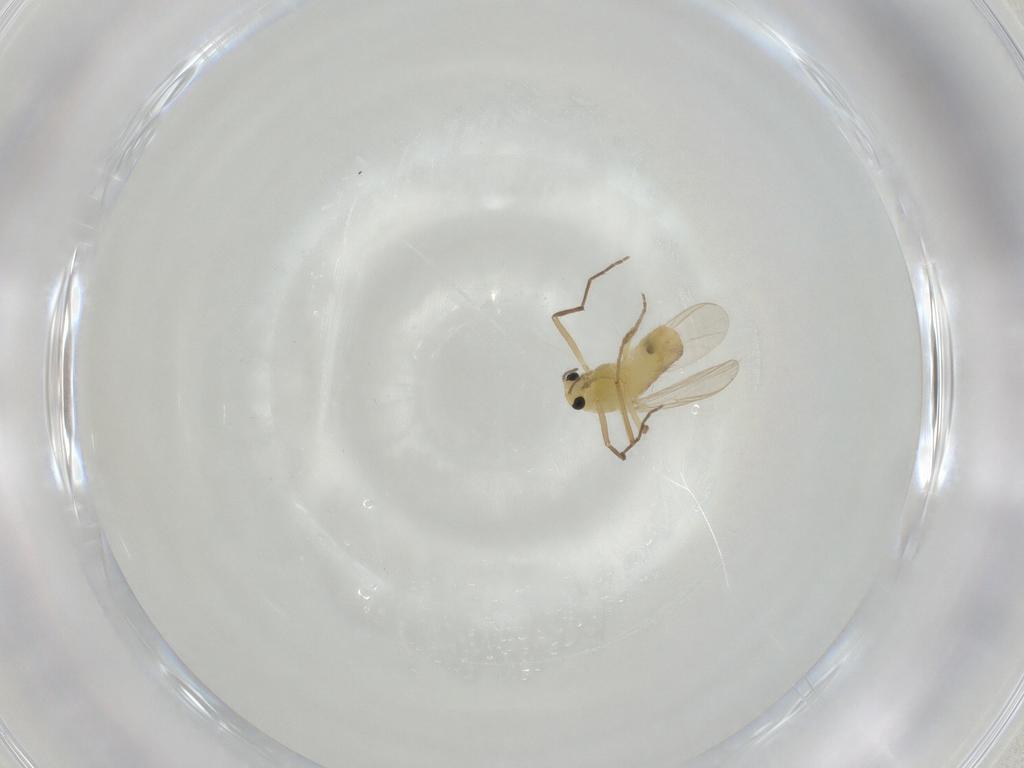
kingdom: Animalia
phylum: Arthropoda
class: Insecta
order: Diptera
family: Chironomidae
